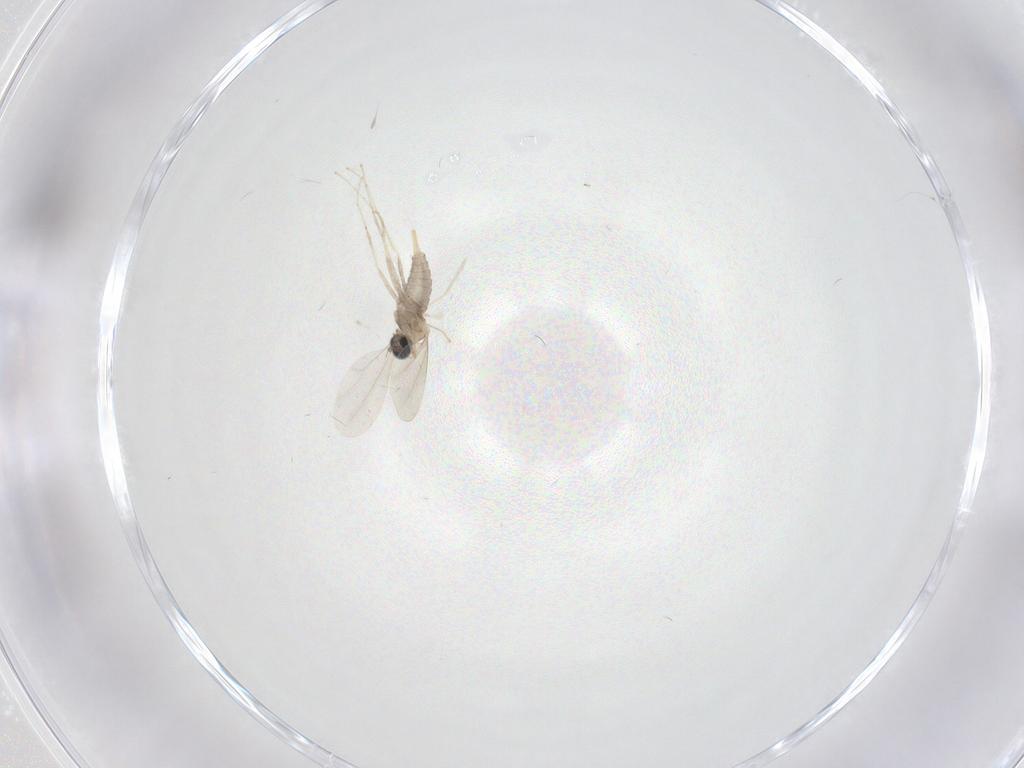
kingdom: Animalia
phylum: Arthropoda
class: Insecta
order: Diptera
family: Cecidomyiidae
